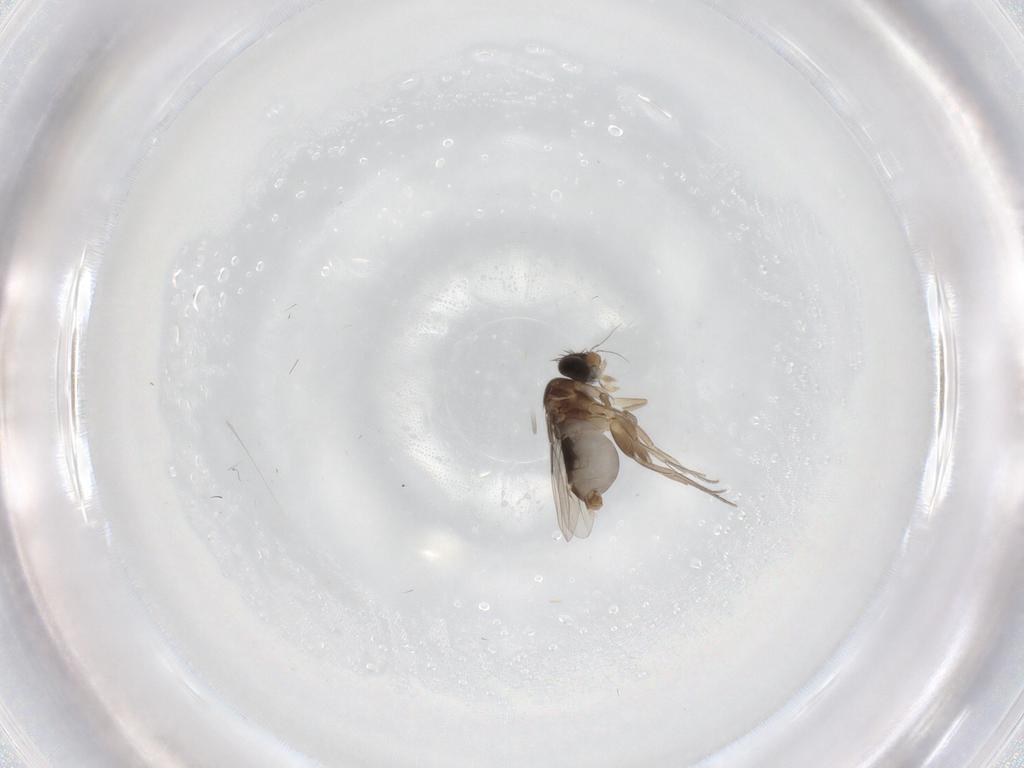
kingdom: Animalia
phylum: Arthropoda
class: Insecta
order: Diptera
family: Phoridae
